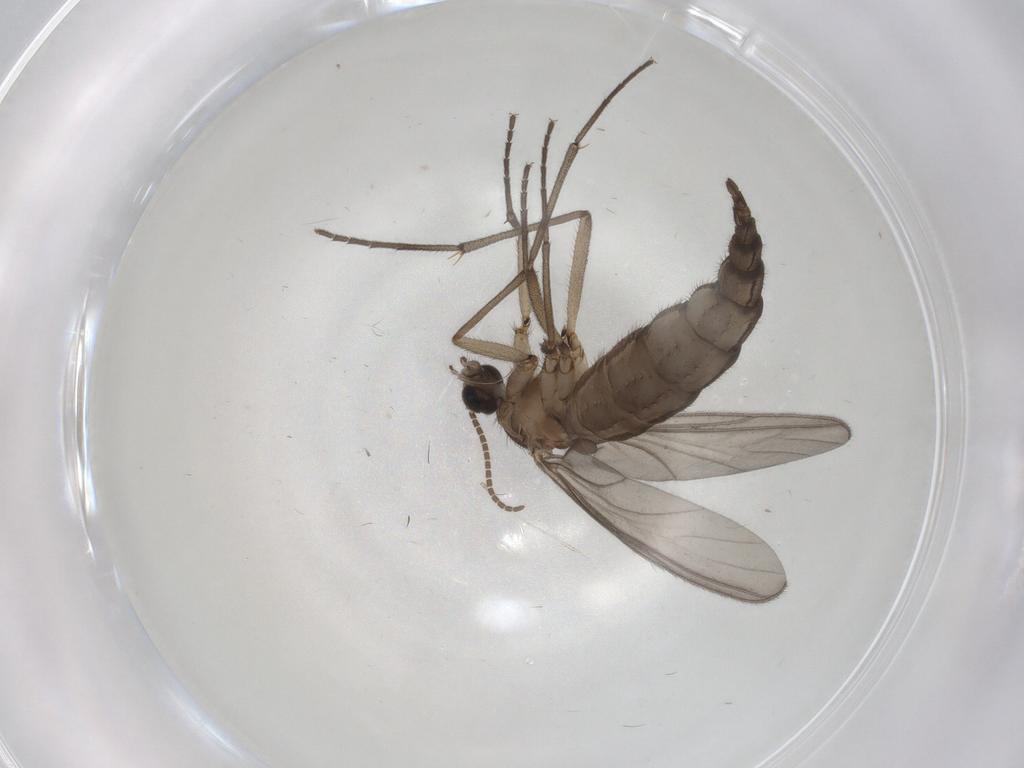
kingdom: Animalia
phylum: Arthropoda
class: Insecta
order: Diptera
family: Sciaridae
